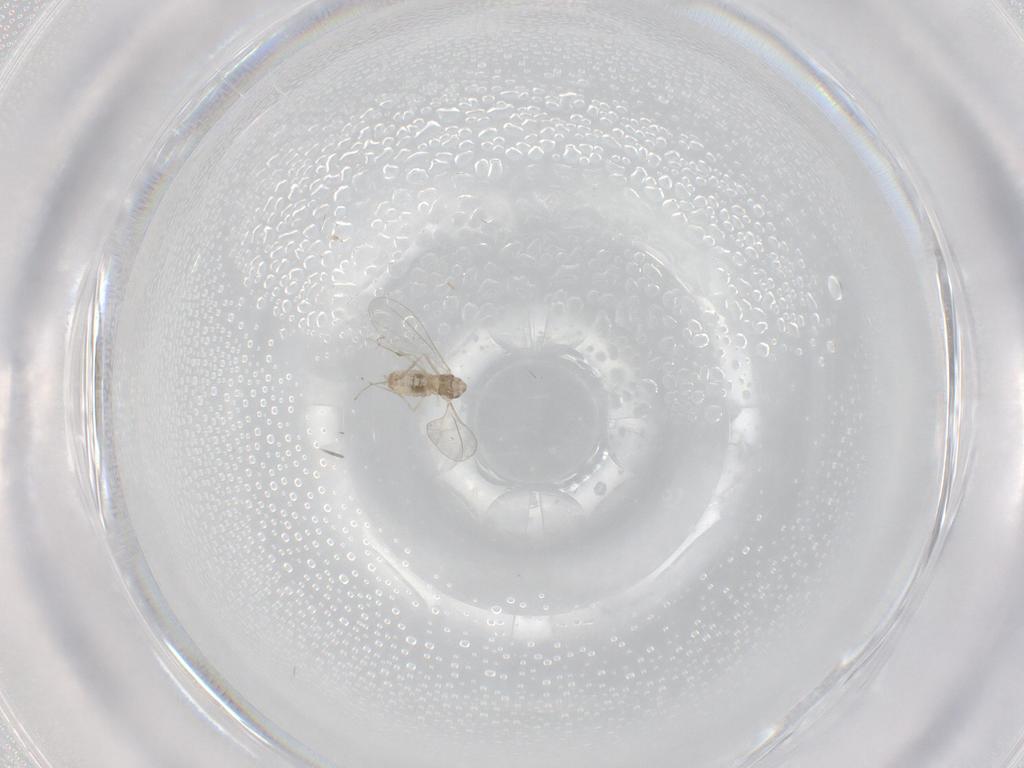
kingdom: Animalia
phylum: Arthropoda
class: Insecta
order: Diptera
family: Cecidomyiidae
